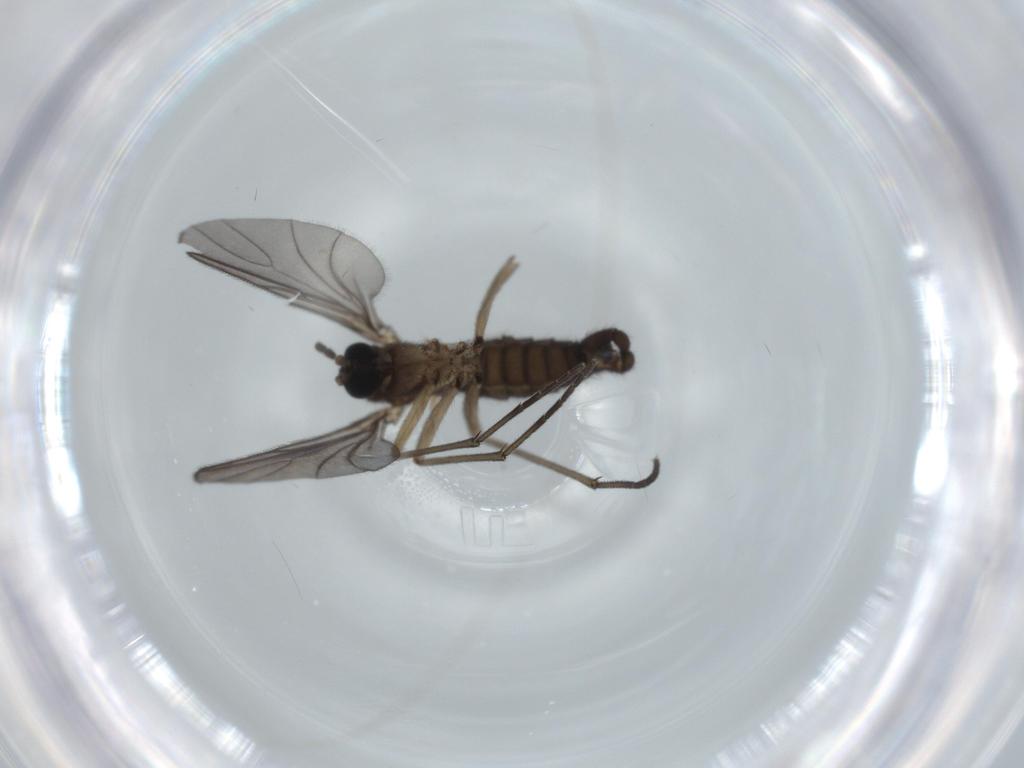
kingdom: Animalia
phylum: Arthropoda
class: Insecta
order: Diptera
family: Sciaridae
